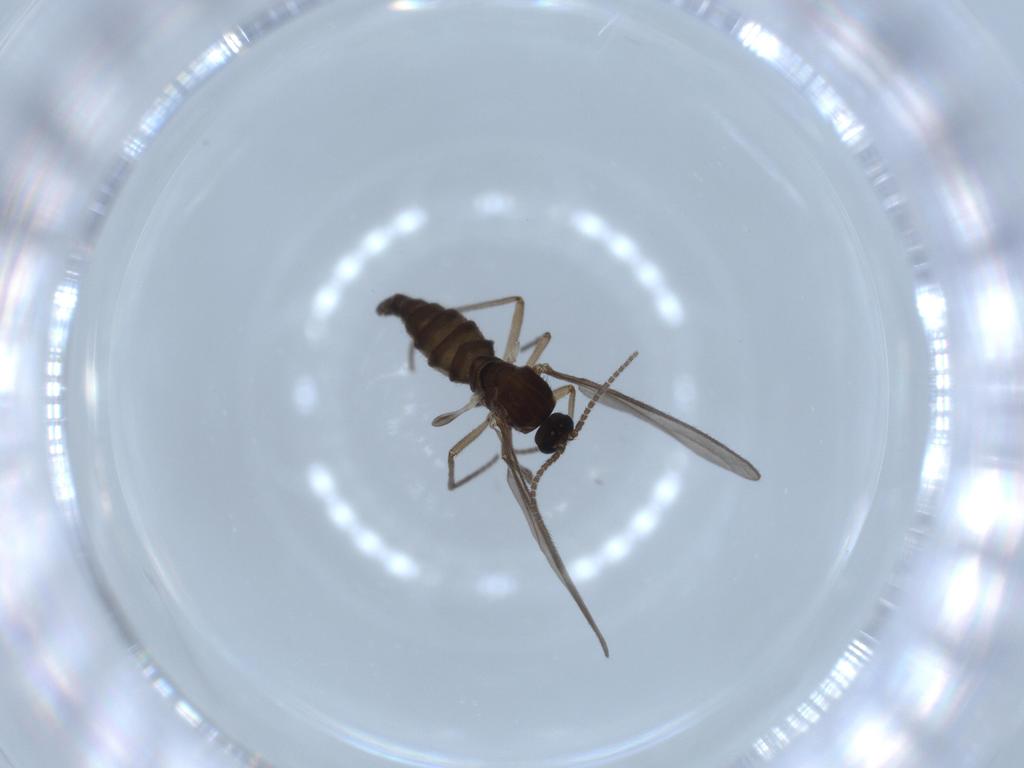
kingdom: Animalia
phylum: Arthropoda
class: Insecta
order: Diptera
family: Sciaridae
